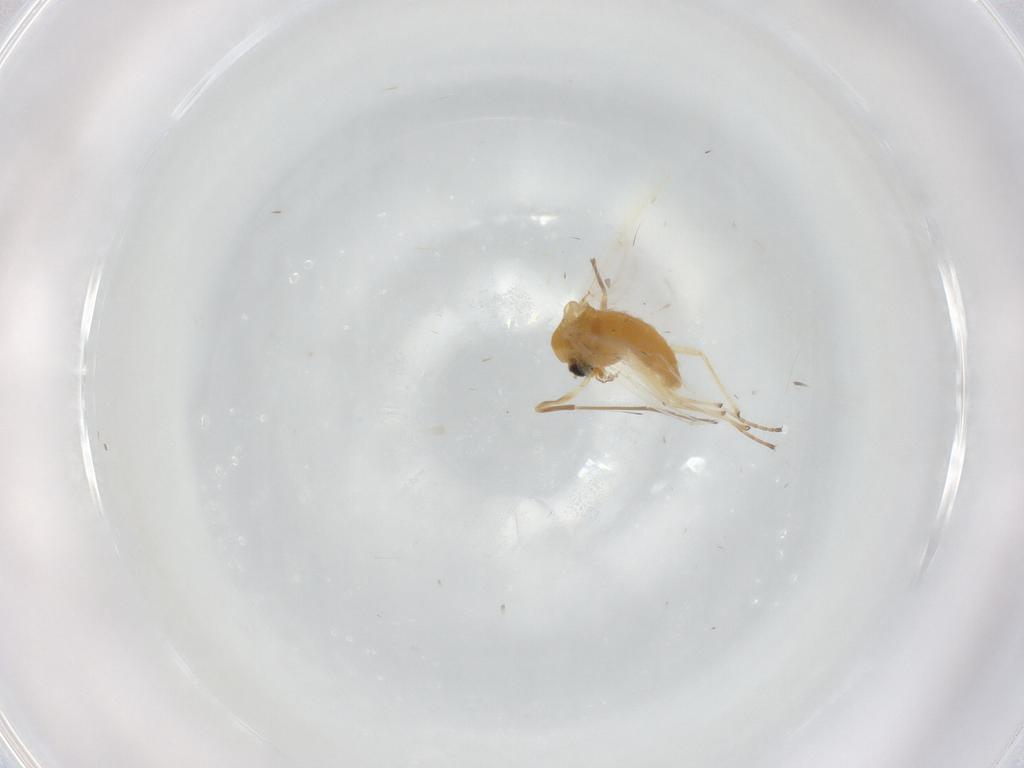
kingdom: Animalia
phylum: Arthropoda
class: Insecta
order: Diptera
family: Chironomidae
